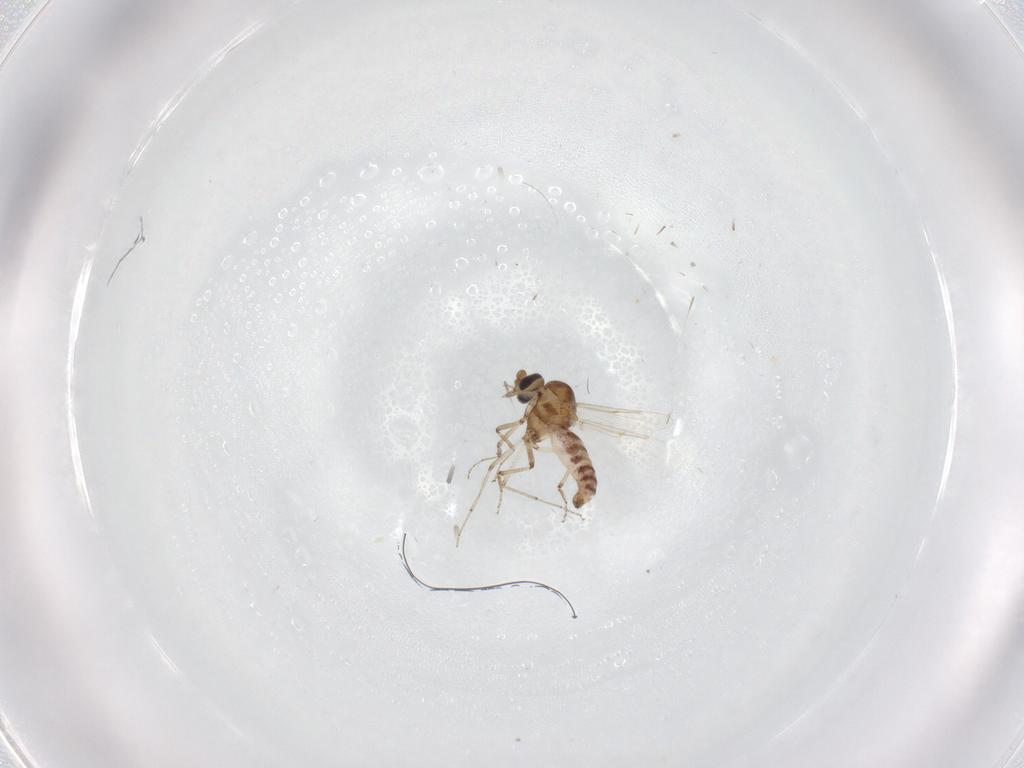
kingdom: Animalia
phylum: Arthropoda
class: Insecta
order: Diptera
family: Ceratopogonidae
